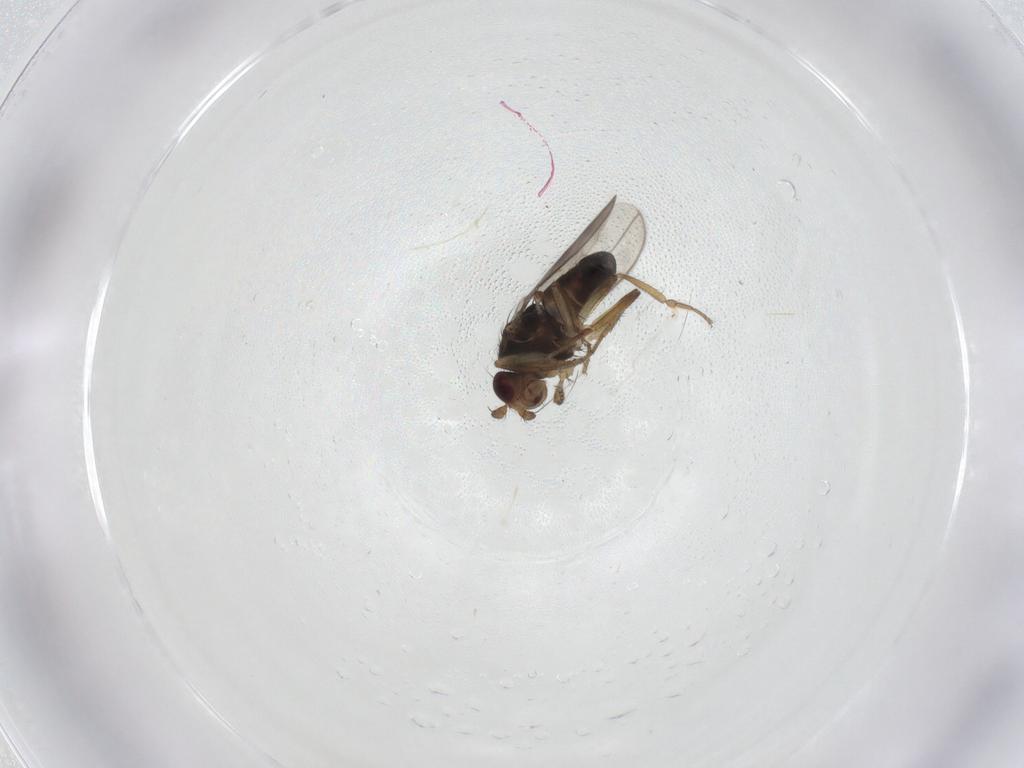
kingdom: Animalia
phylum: Arthropoda
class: Insecta
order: Diptera
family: Sphaeroceridae
